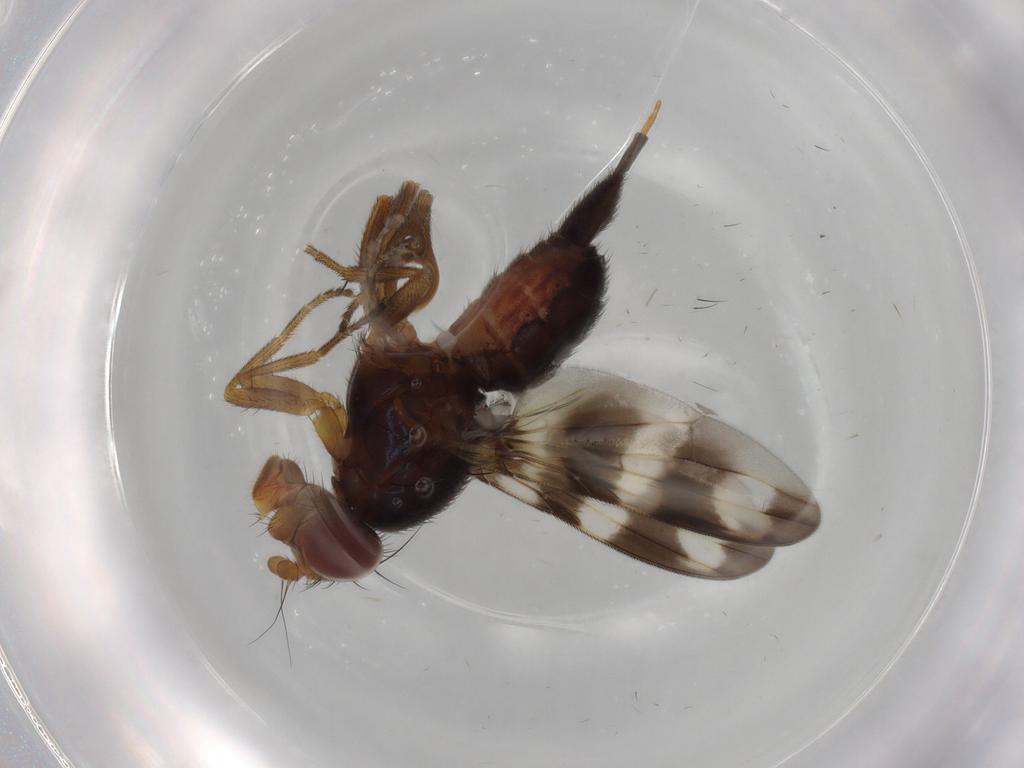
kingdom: Animalia
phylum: Arthropoda
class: Insecta
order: Diptera
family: Ulidiidae
